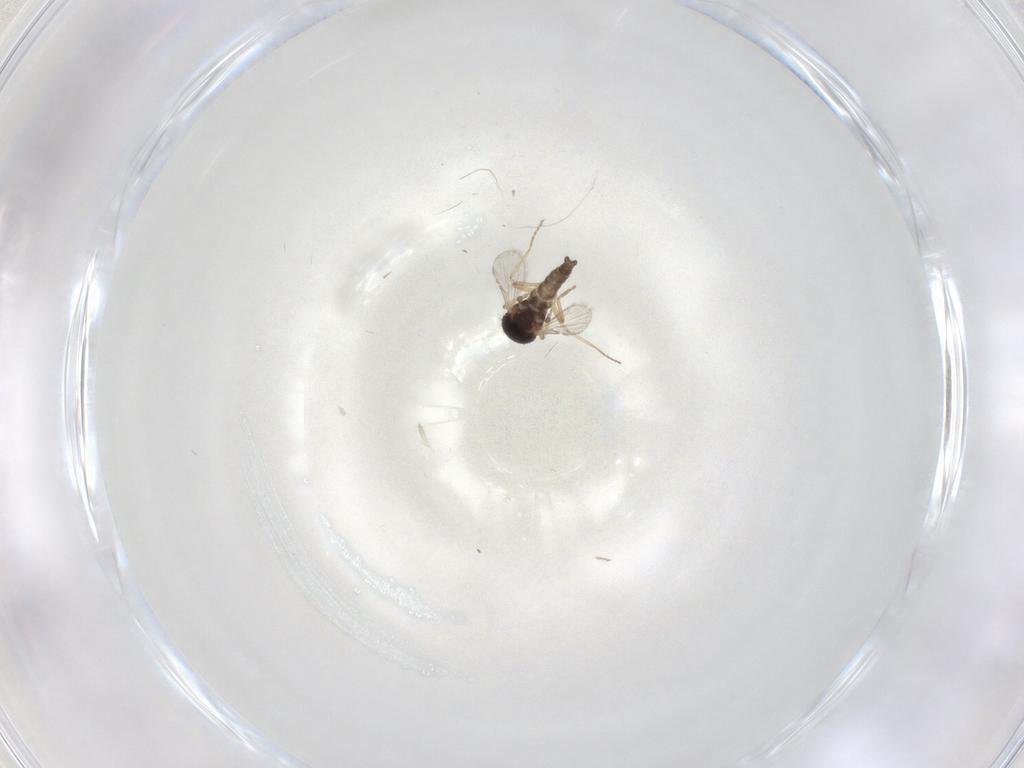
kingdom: Animalia
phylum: Arthropoda
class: Insecta
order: Diptera
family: Ceratopogonidae
